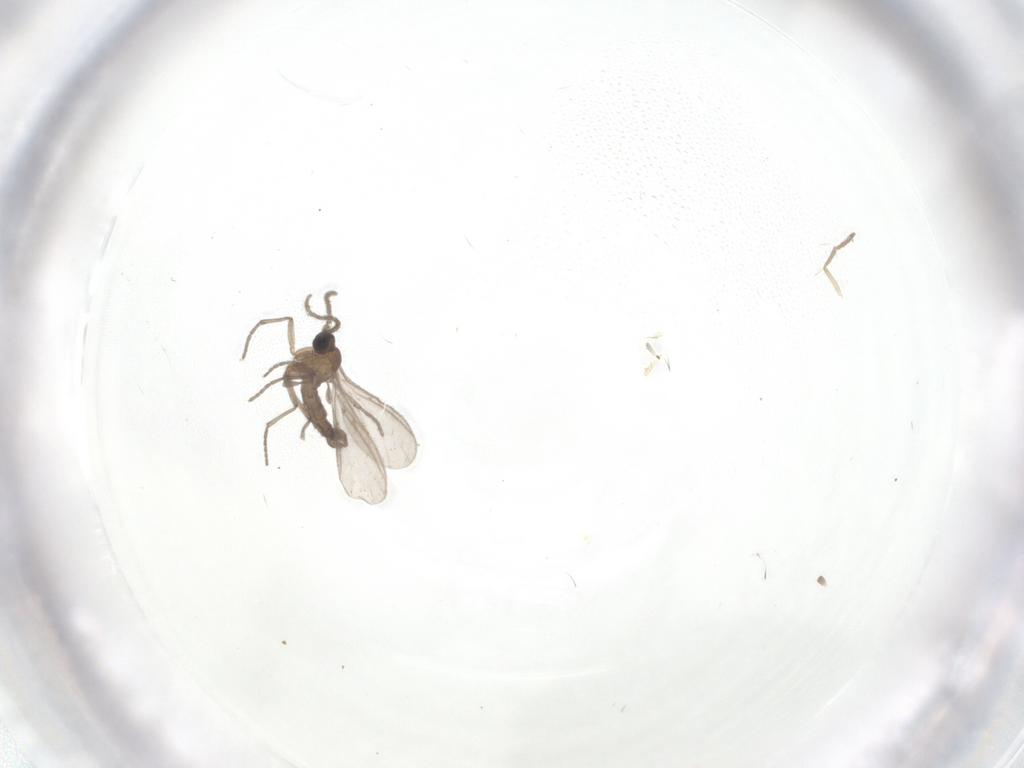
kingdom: Animalia
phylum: Arthropoda
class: Insecta
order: Diptera
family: Sciaridae
